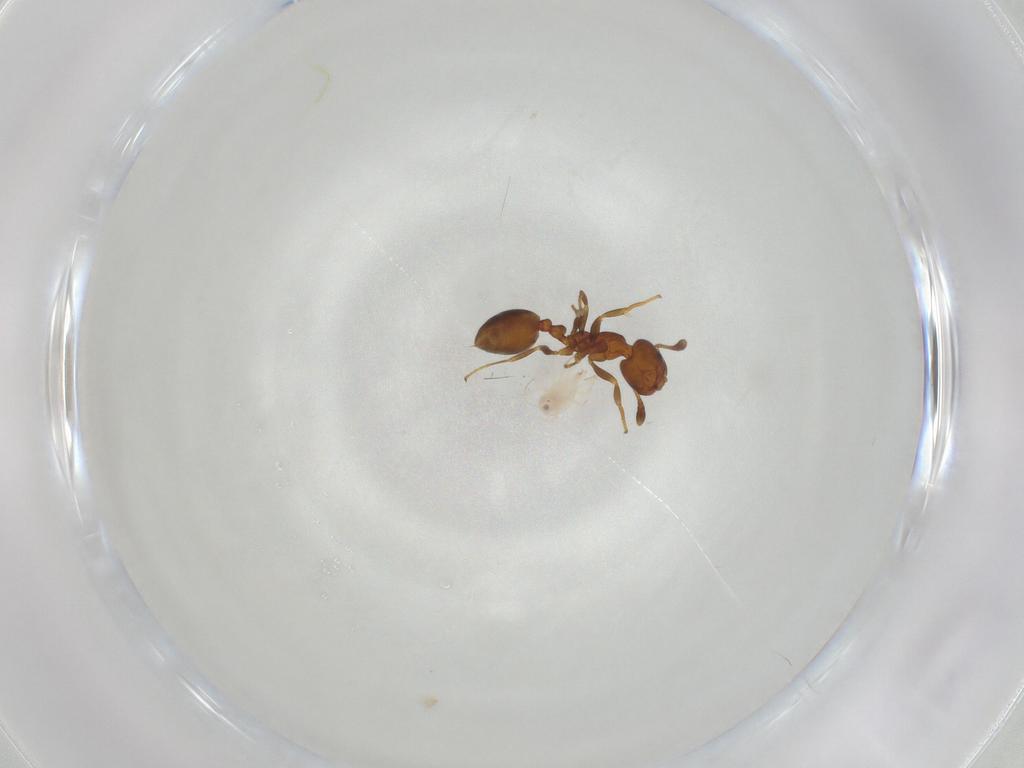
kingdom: Animalia
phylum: Arthropoda
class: Insecta
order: Hymenoptera
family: Formicidae
